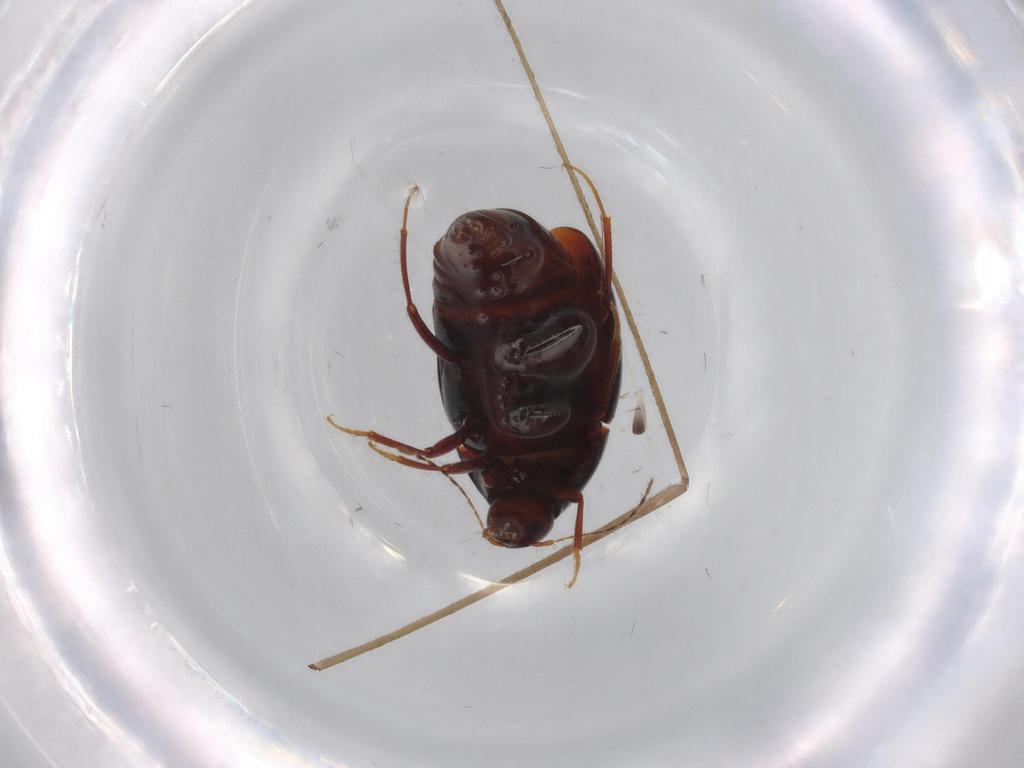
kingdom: Animalia
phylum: Arthropoda
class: Insecta
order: Coleoptera
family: Staphylinidae
